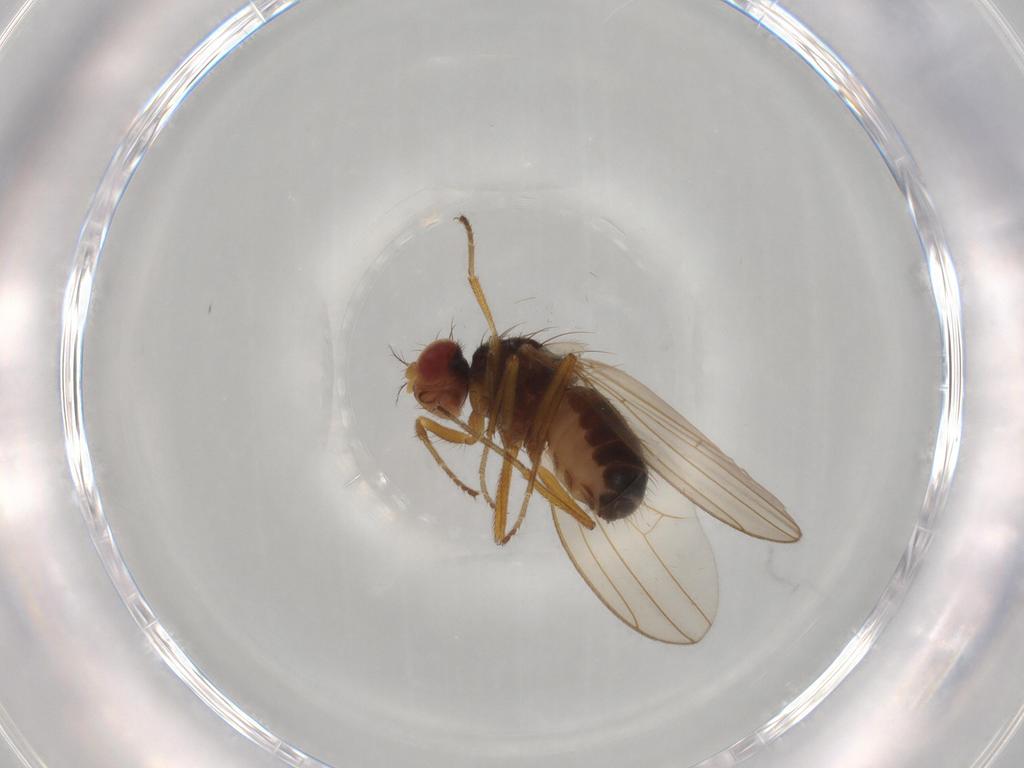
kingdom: Animalia
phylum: Arthropoda
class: Insecta
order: Diptera
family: Drosophilidae
